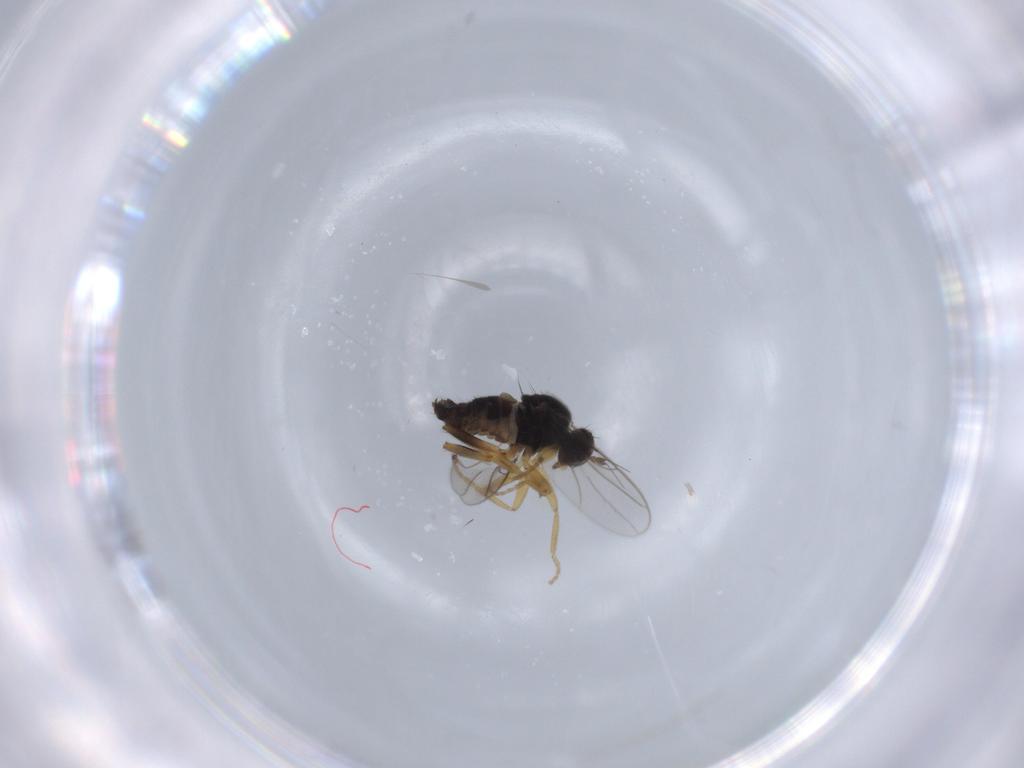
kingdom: Animalia
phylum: Arthropoda
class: Insecta
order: Diptera
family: Hybotidae
